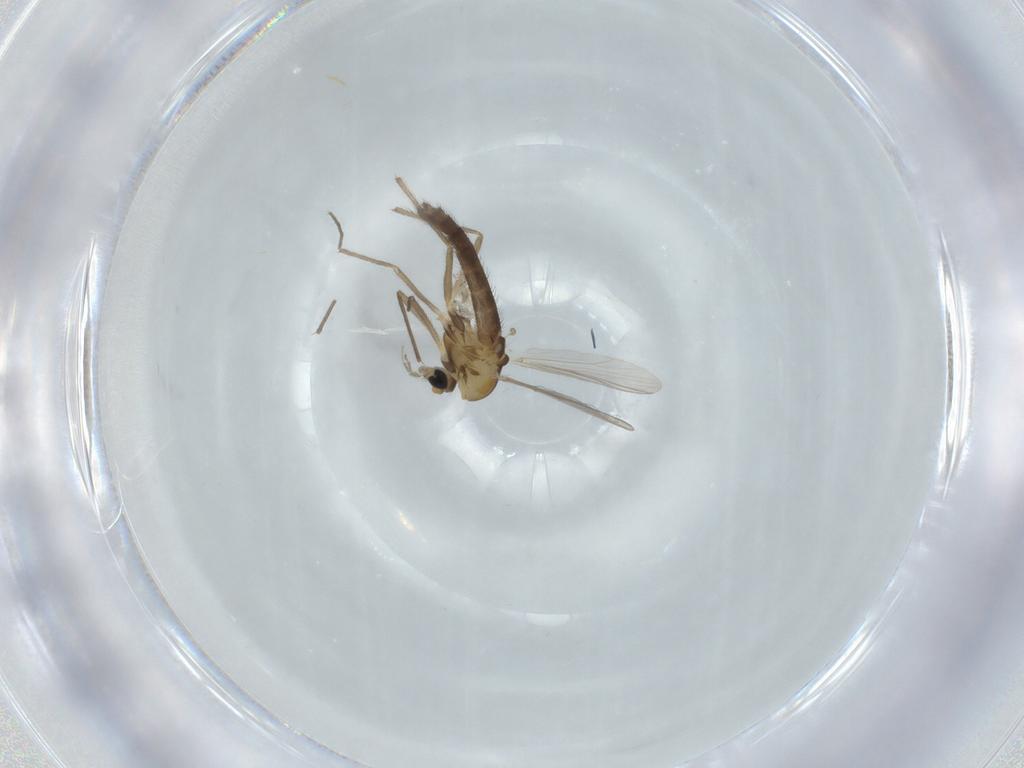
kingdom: Animalia
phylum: Arthropoda
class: Insecta
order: Diptera
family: Chironomidae
